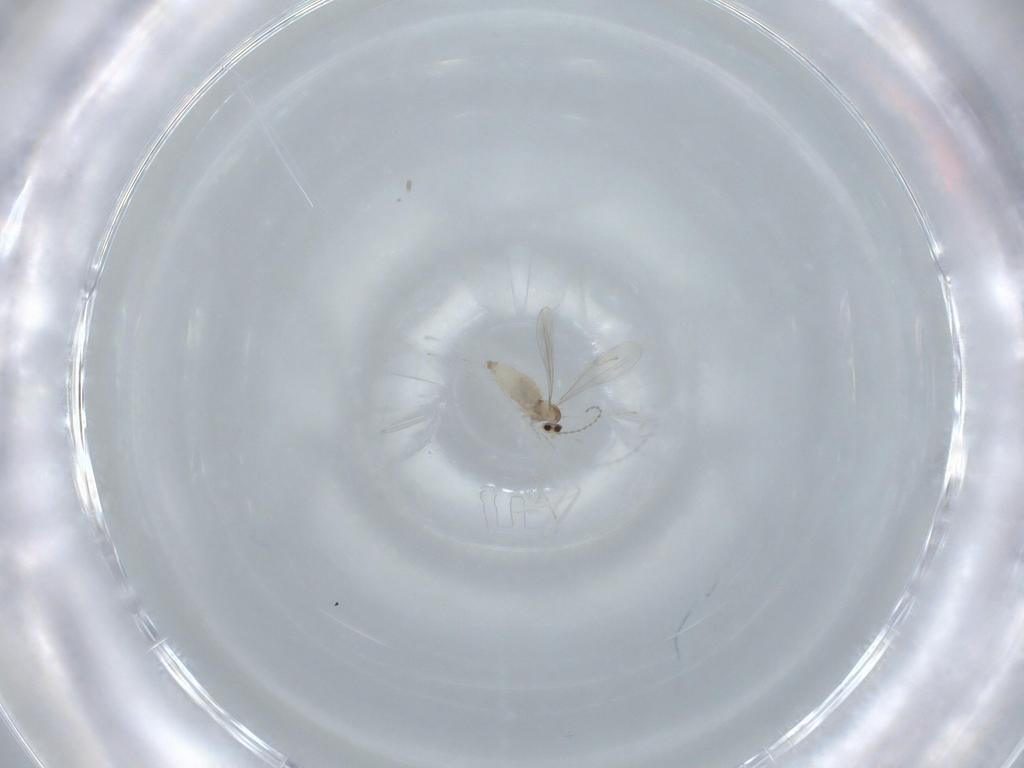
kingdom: Animalia
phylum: Arthropoda
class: Insecta
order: Diptera
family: Cecidomyiidae
